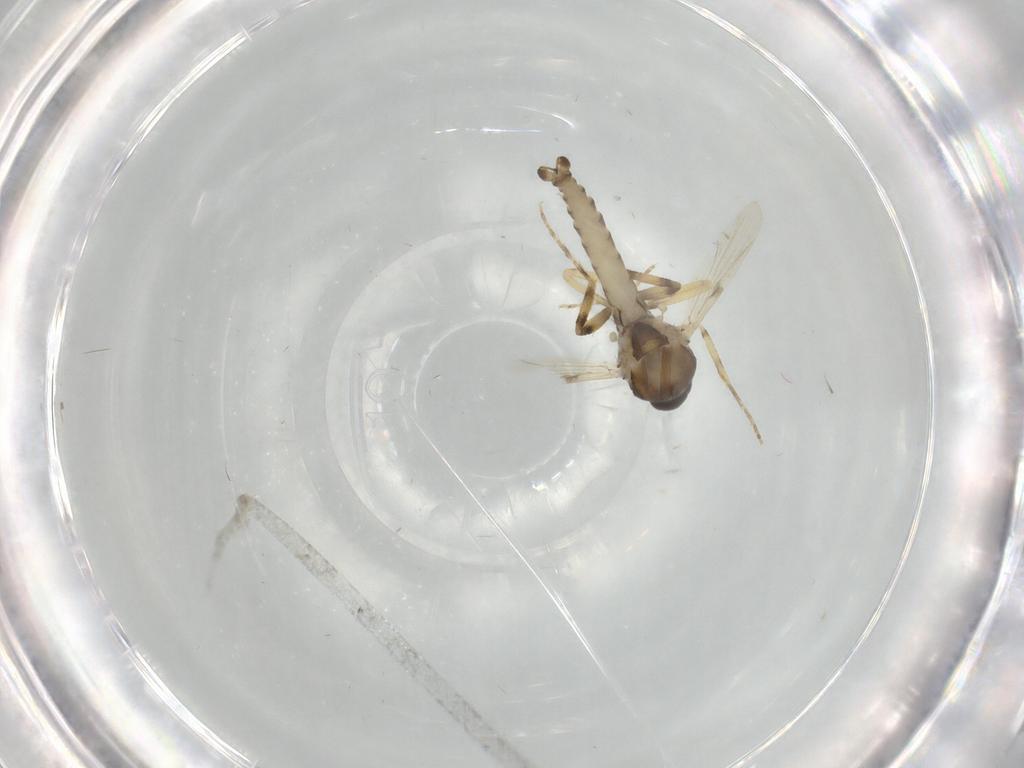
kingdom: Animalia
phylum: Arthropoda
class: Insecta
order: Diptera
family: Ceratopogonidae
